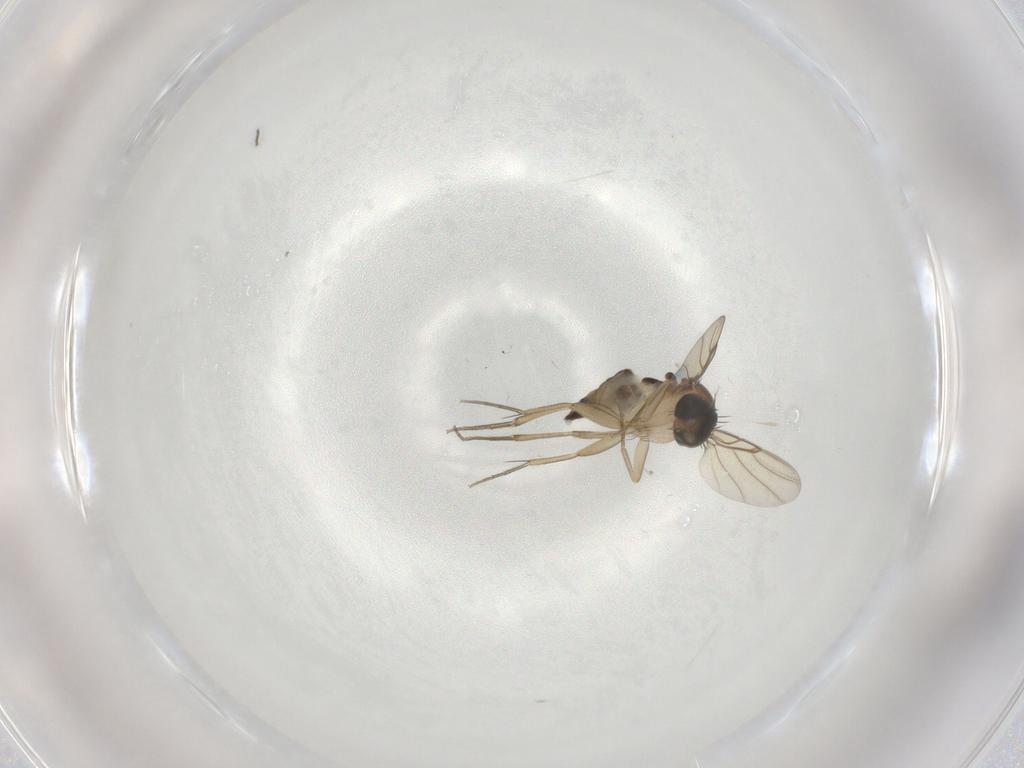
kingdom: Animalia
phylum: Arthropoda
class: Insecta
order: Diptera
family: Phoridae
